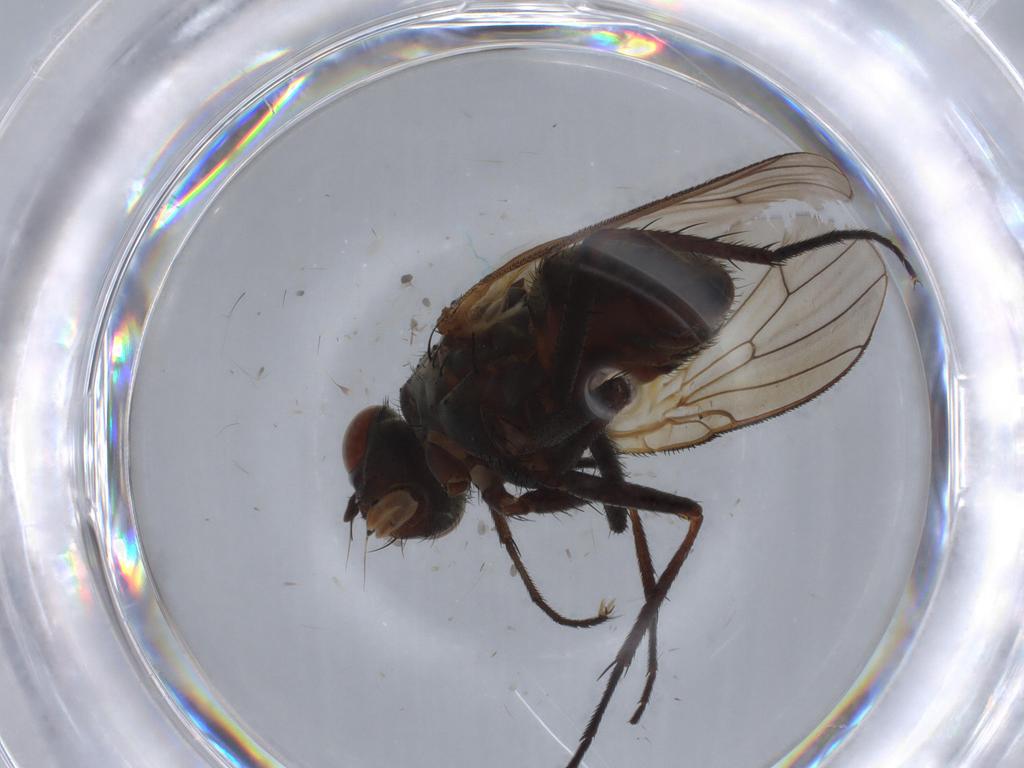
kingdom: Animalia
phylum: Arthropoda
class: Insecta
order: Diptera
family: Anthomyiidae
